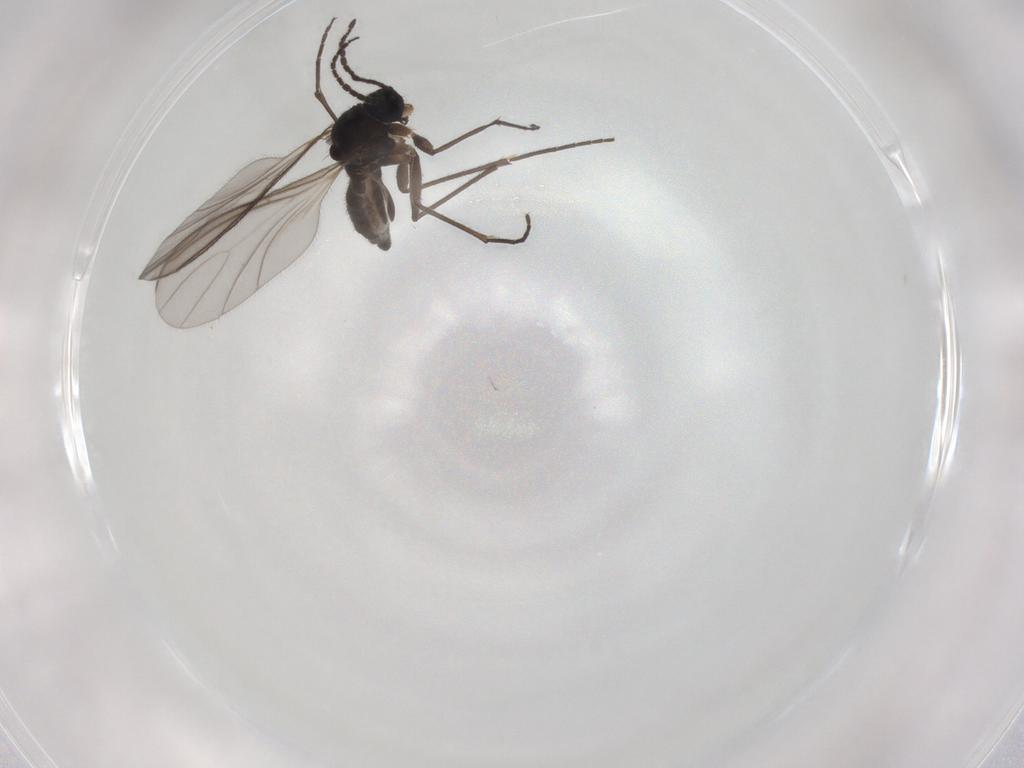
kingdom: Animalia
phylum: Arthropoda
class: Insecta
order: Diptera
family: Sciaridae
